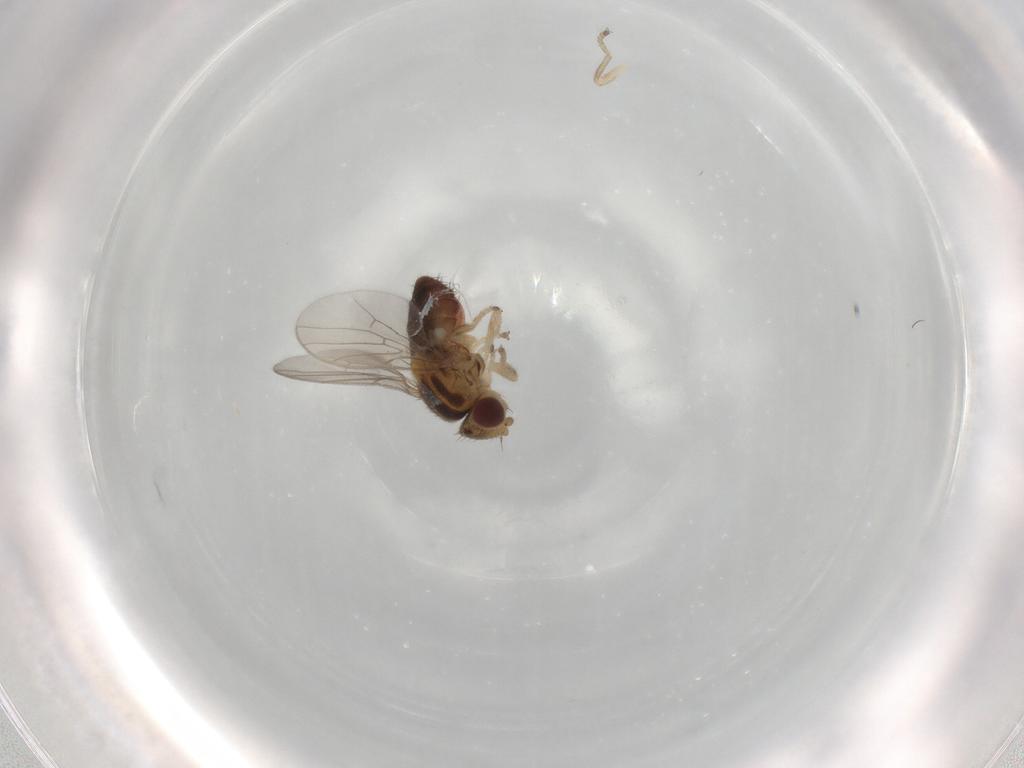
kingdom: Animalia
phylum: Arthropoda
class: Insecta
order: Diptera
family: Chloropidae
